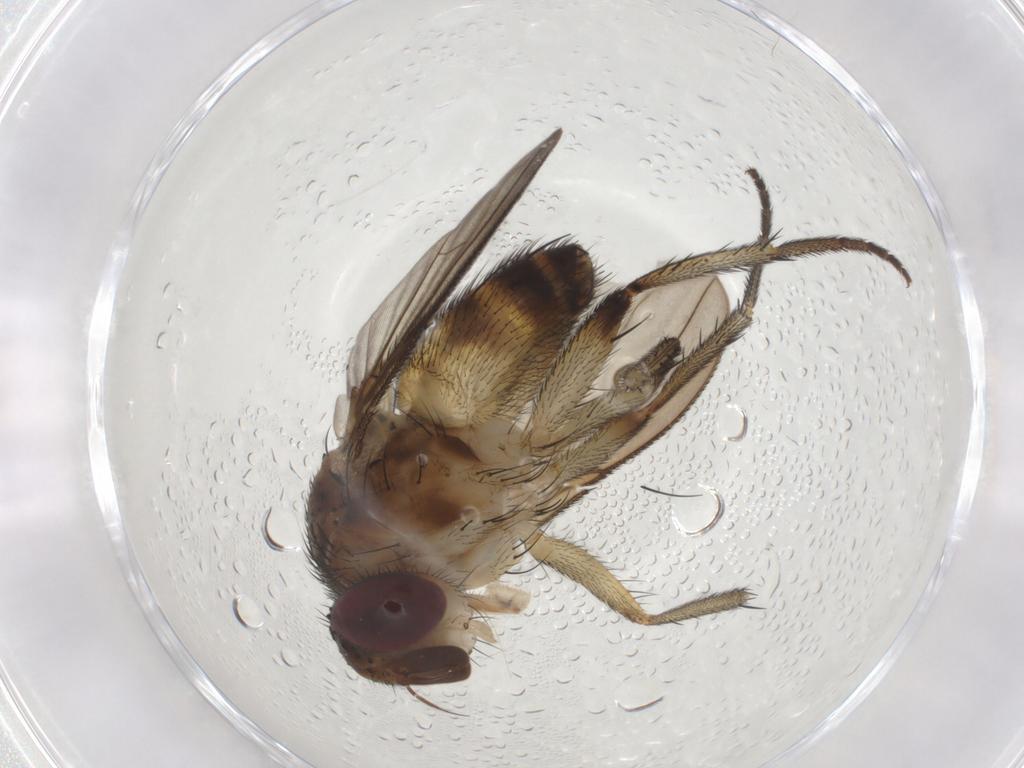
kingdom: Animalia
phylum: Arthropoda
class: Insecta
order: Diptera
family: Tachinidae
